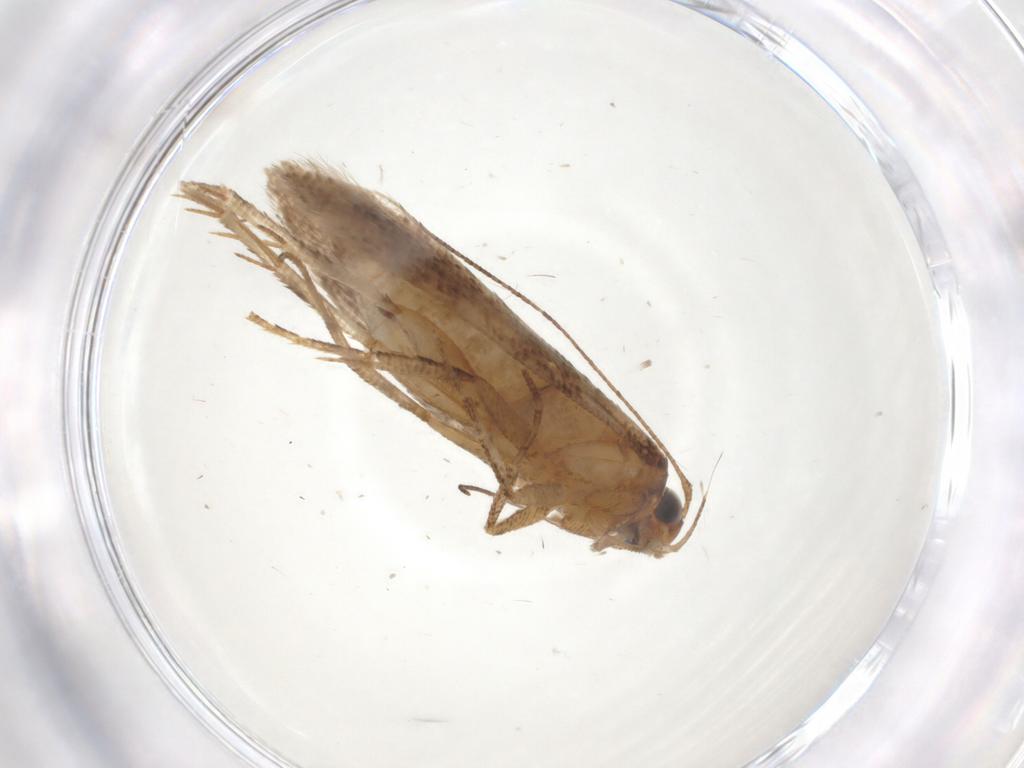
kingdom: Animalia
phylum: Arthropoda
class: Insecta
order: Lepidoptera
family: Gelechiidae
